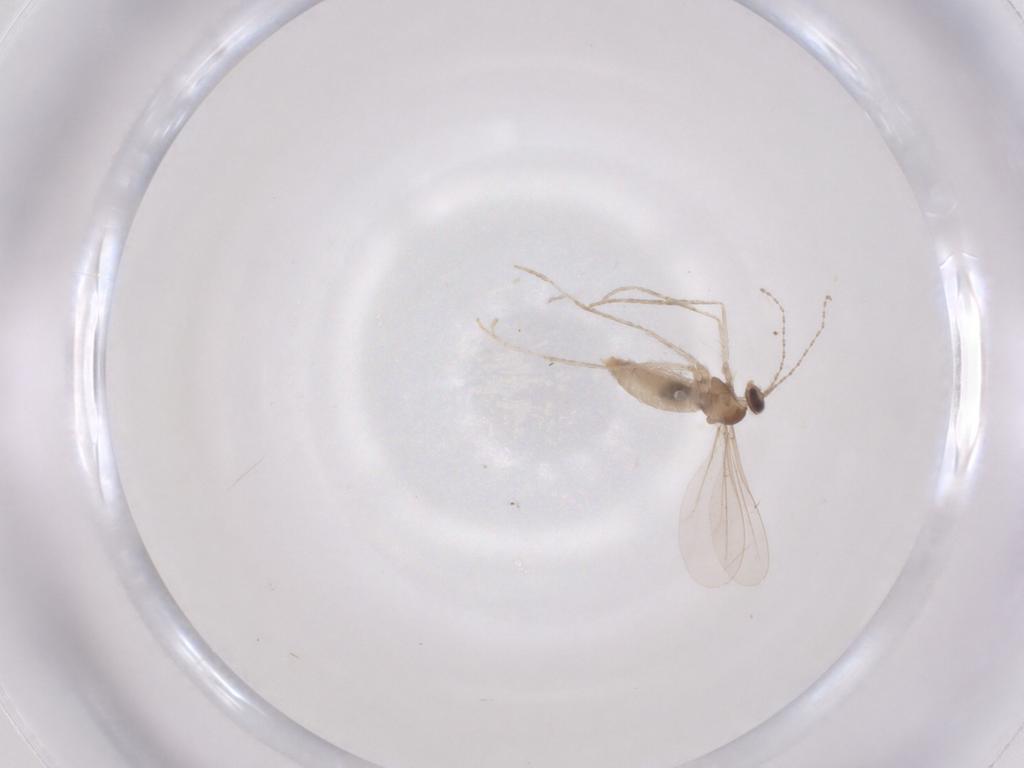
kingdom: Animalia
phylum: Arthropoda
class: Insecta
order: Diptera
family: Cecidomyiidae
